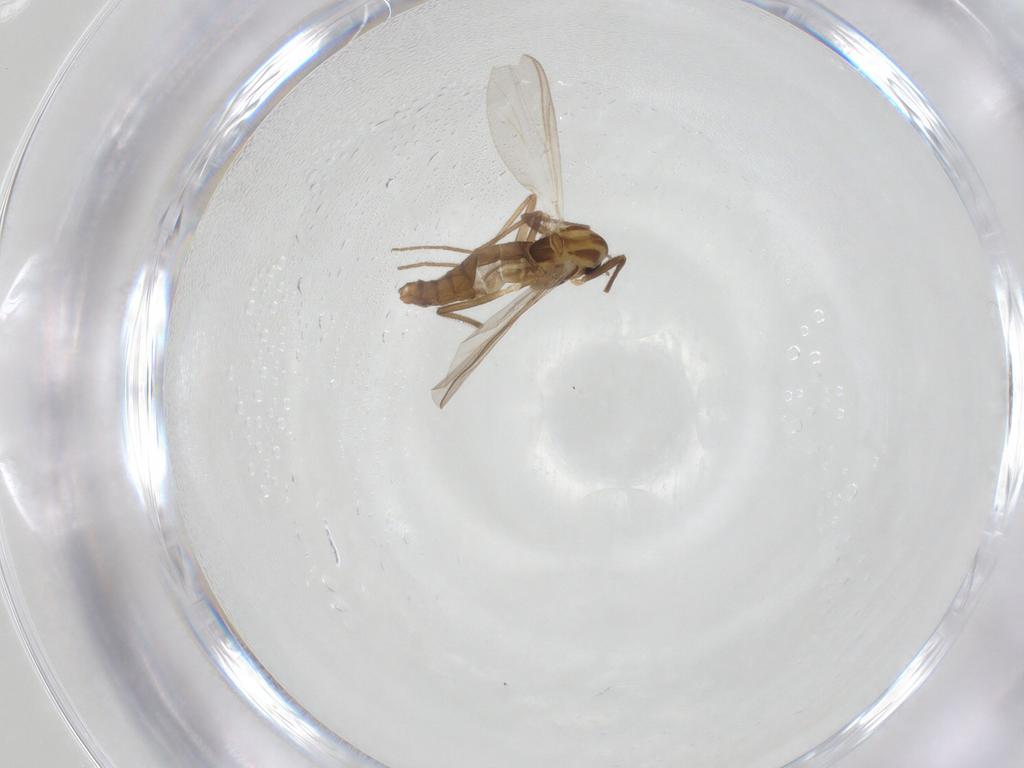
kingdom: Animalia
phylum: Arthropoda
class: Insecta
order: Diptera
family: Chironomidae
